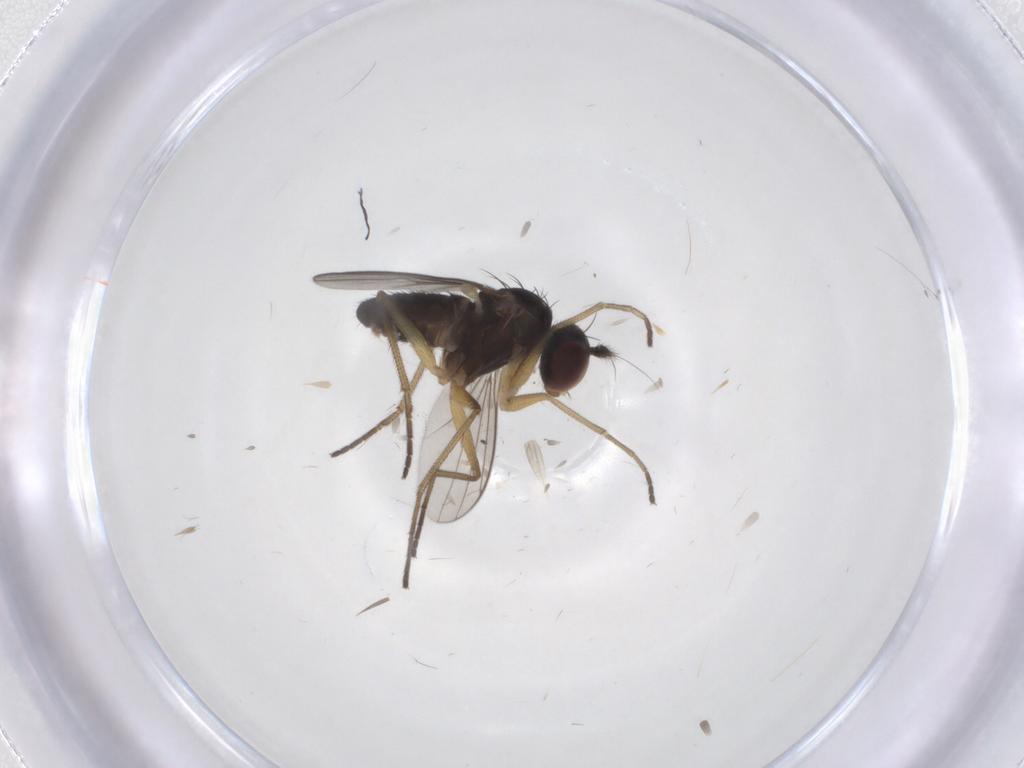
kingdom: Animalia
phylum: Arthropoda
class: Insecta
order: Diptera
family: Dolichopodidae
